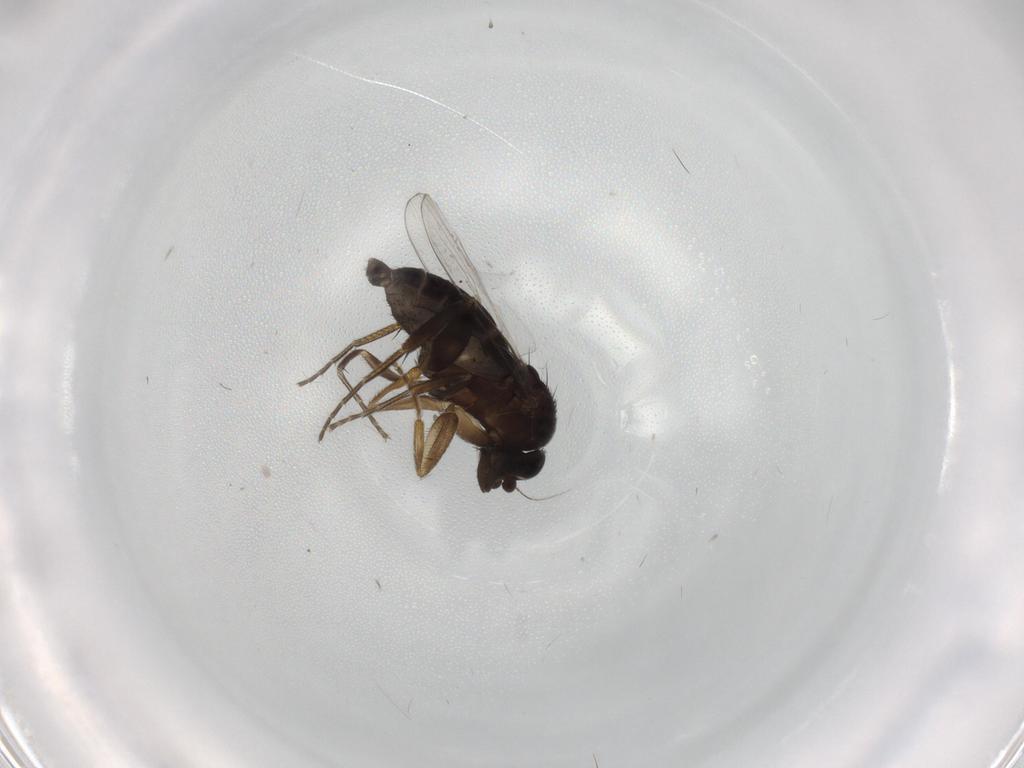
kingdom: Animalia
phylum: Arthropoda
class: Insecta
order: Diptera
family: Phoridae
